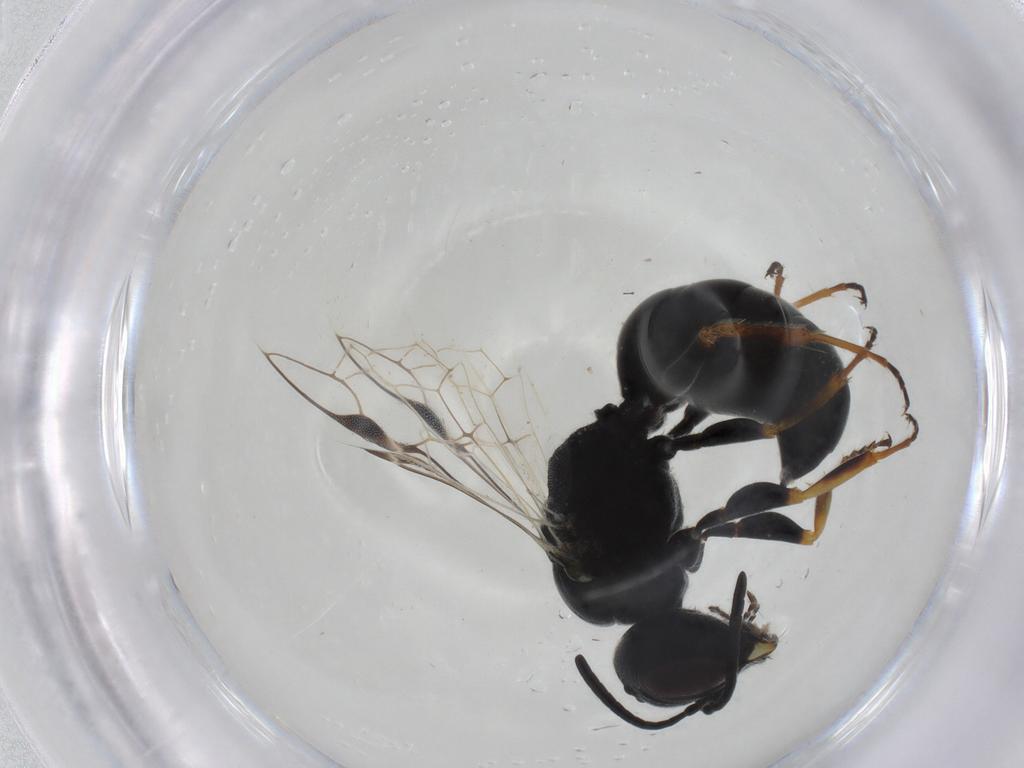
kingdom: Animalia
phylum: Arthropoda
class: Insecta
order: Hymenoptera
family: Pemphredonidae
